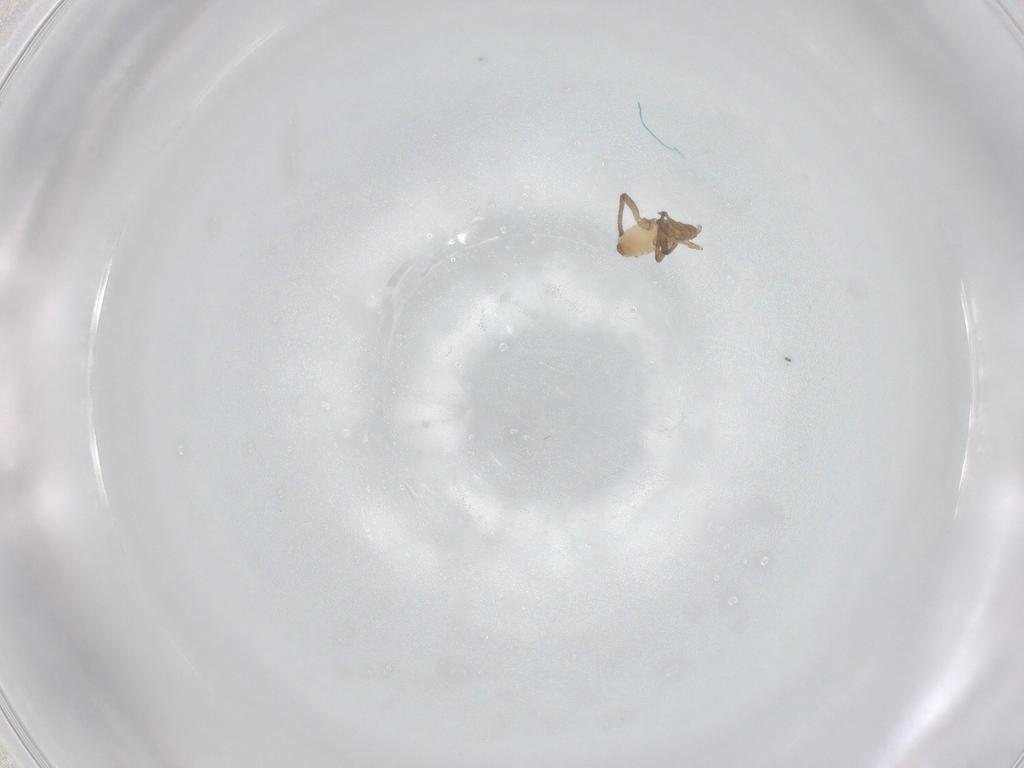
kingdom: Animalia
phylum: Arthropoda
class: Insecta
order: Hemiptera
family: Aphididae
